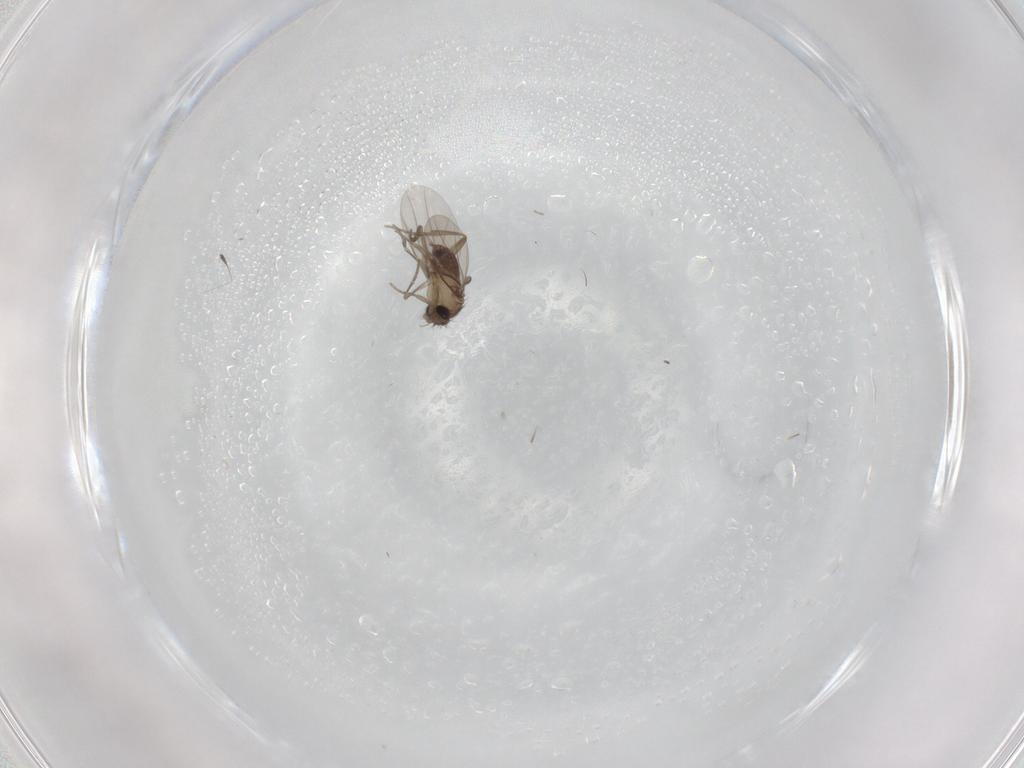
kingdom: Animalia
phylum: Arthropoda
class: Insecta
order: Diptera
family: Phoridae
